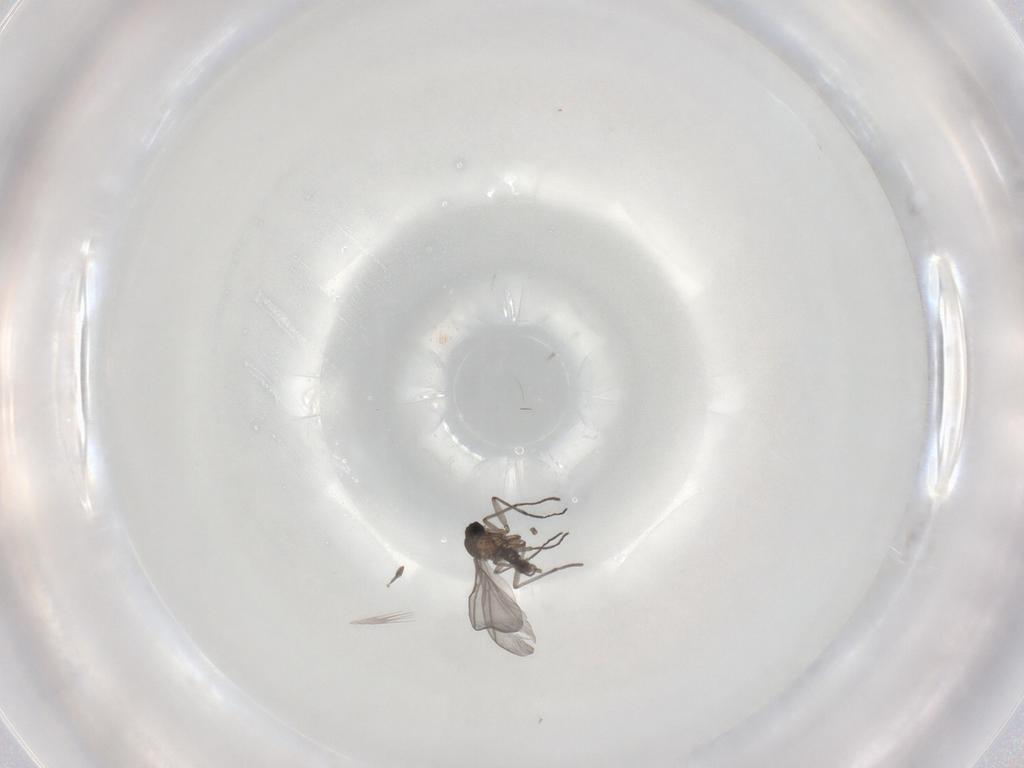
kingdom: Animalia
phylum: Arthropoda
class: Insecta
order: Diptera
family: Sciaridae
